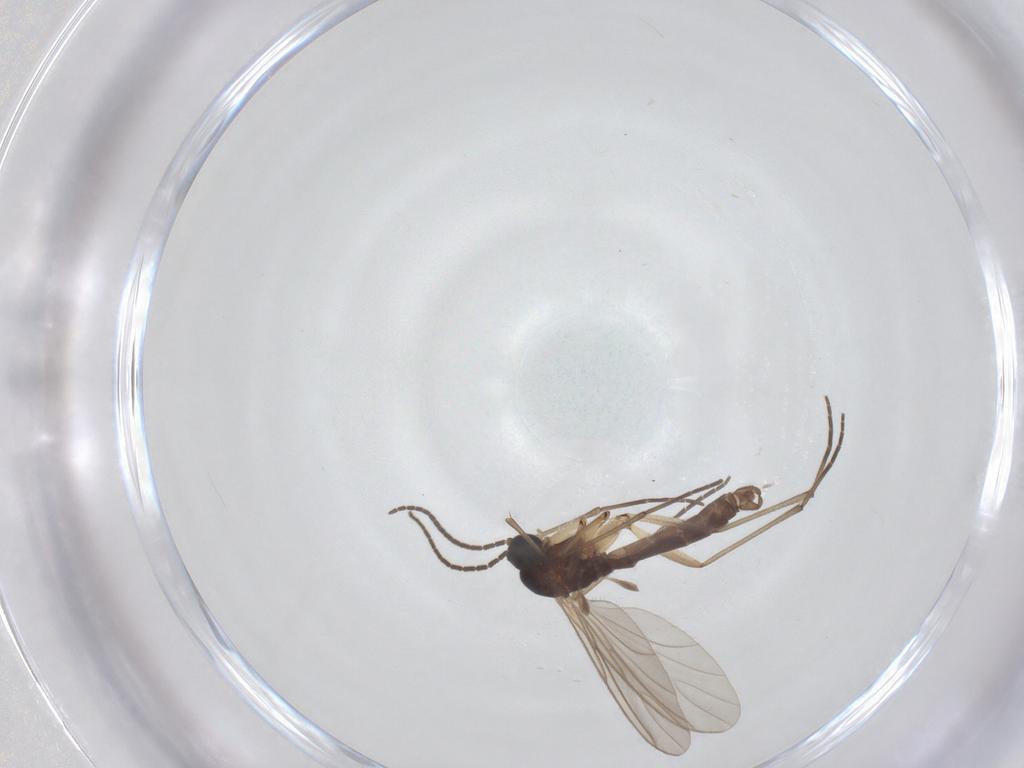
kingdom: Animalia
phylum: Arthropoda
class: Insecta
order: Diptera
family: Sciaridae
